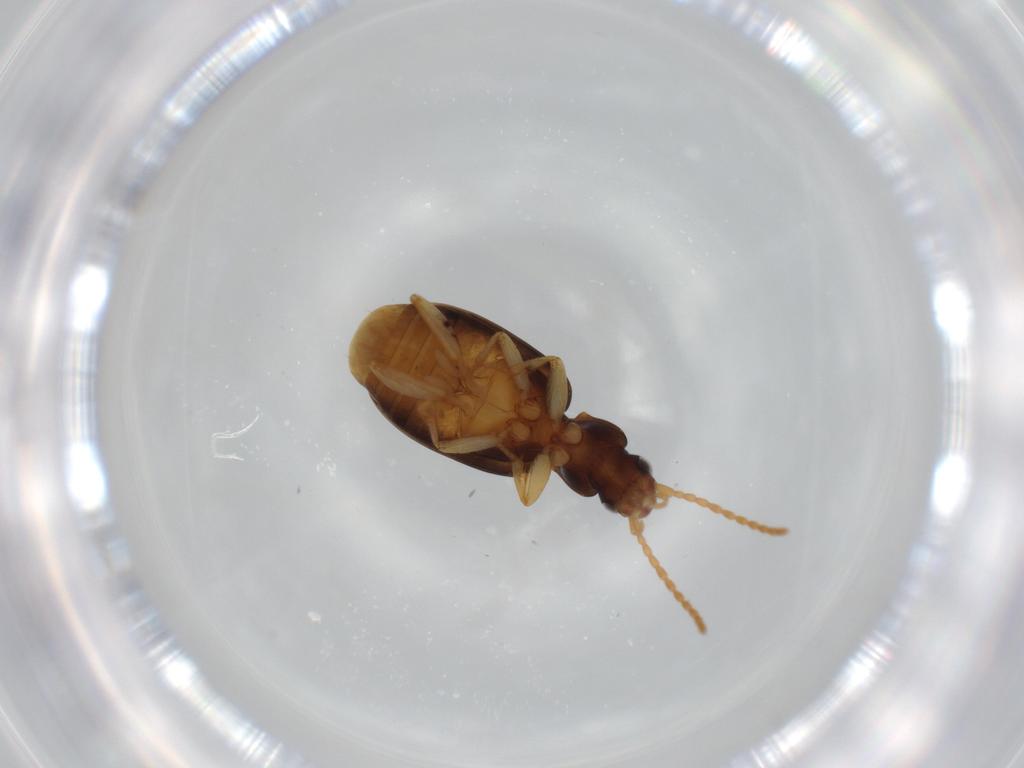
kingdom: Animalia
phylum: Arthropoda
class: Insecta
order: Coleoptera
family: Carabidae
